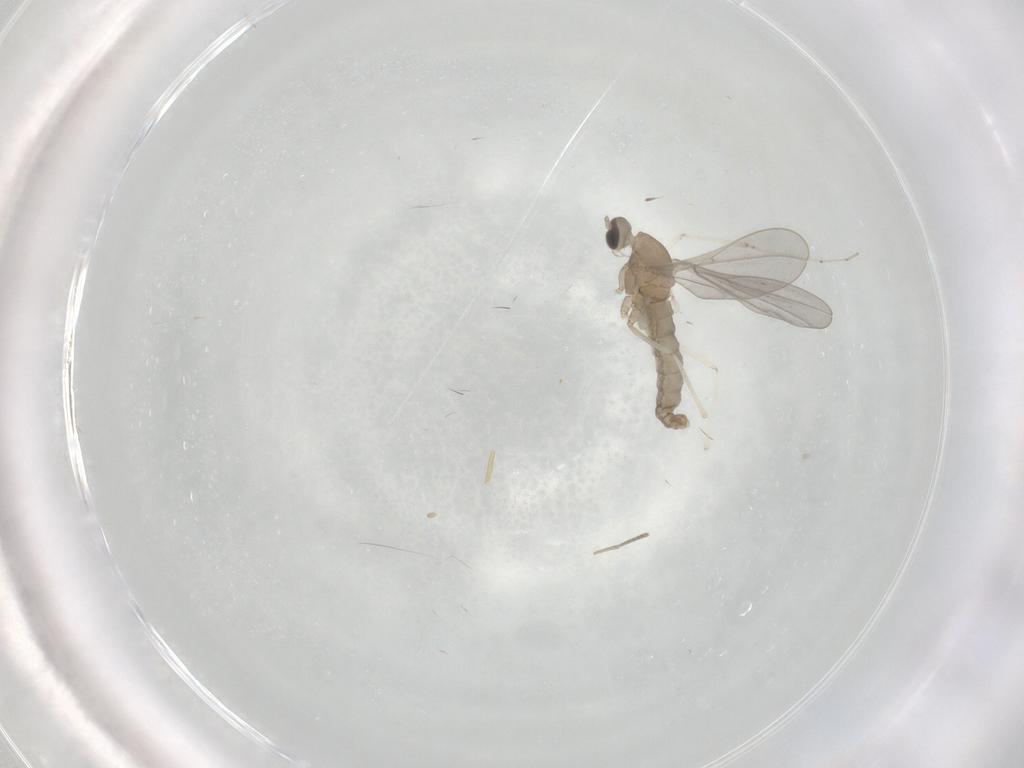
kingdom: Animalia
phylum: Arthropoda
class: Insecta
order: Diptera
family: Cecidomyiidae
